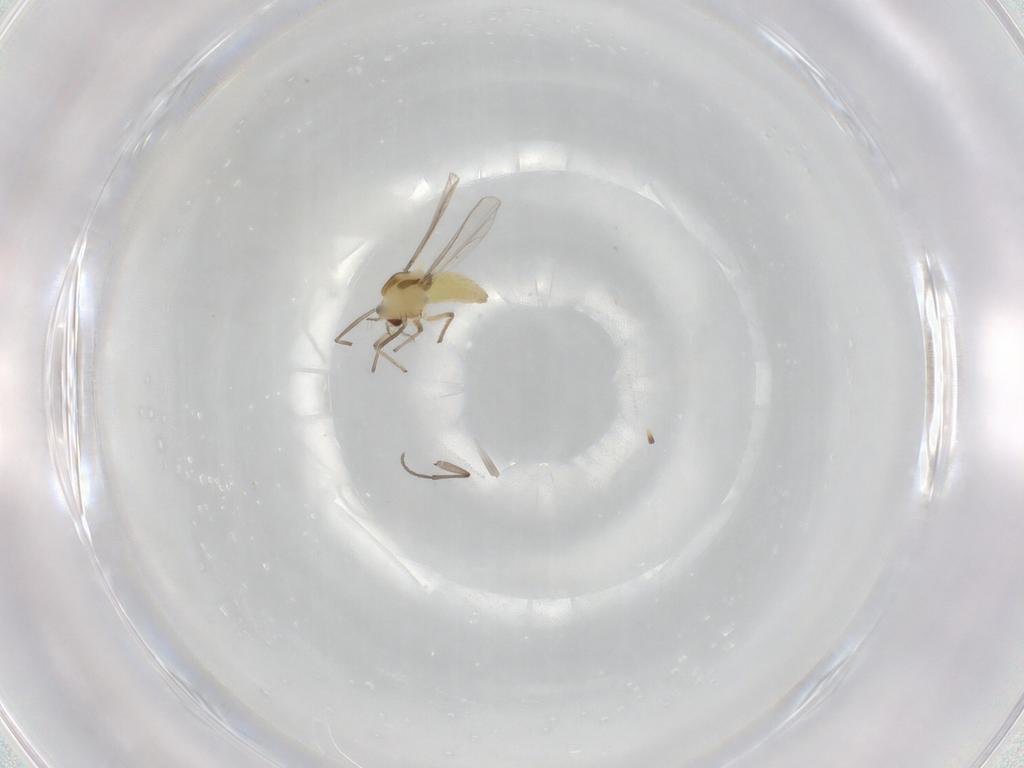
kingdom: Animalia
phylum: Arthropoda
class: Insecta
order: Diptera
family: Chironomidae
